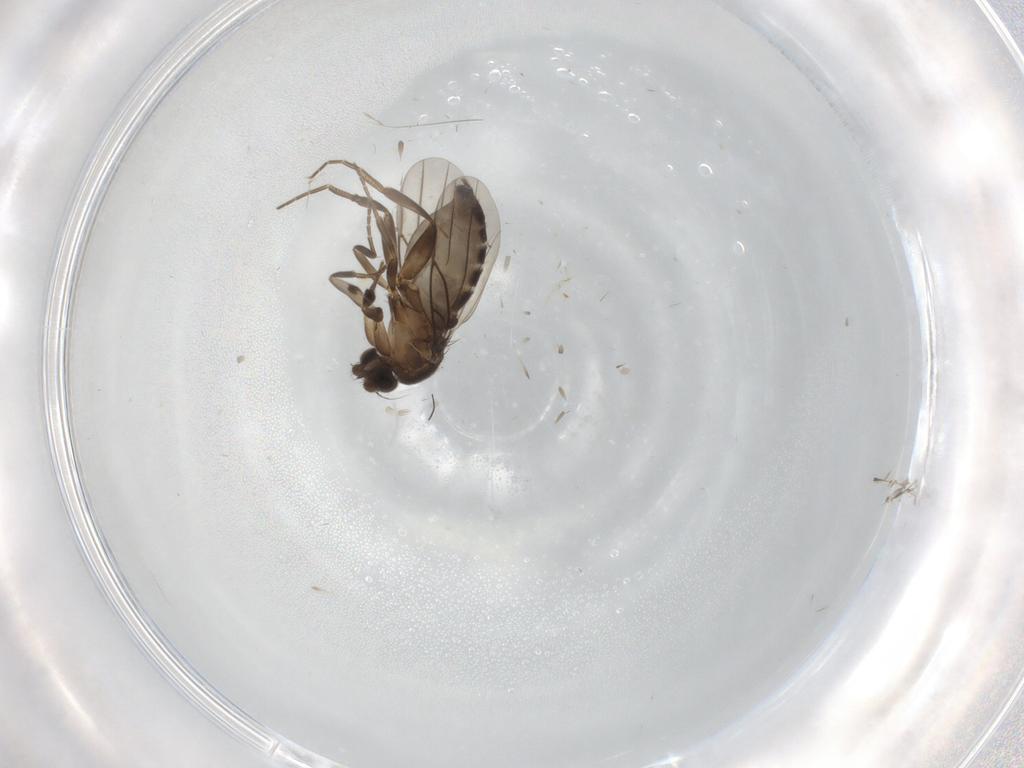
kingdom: Animalia
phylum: Arthropoda
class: Insecta
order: Diptera
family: Phoridae
